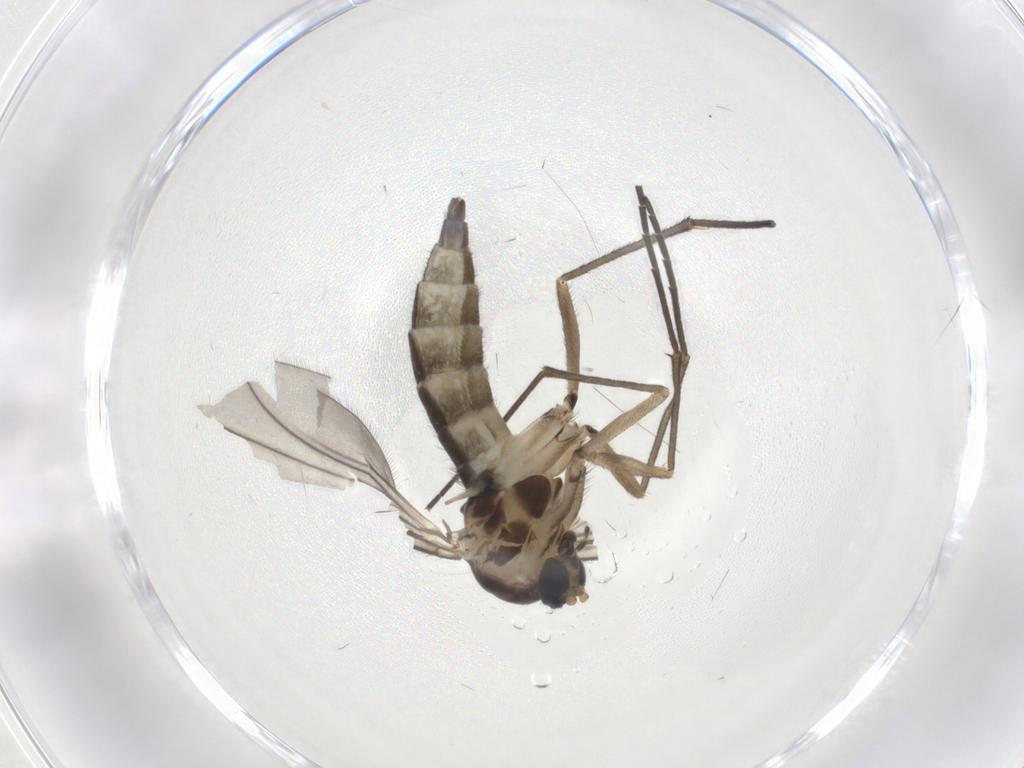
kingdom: Animalia
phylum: Arthropoda
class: Insecta
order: Diptera
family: Sciaridae
